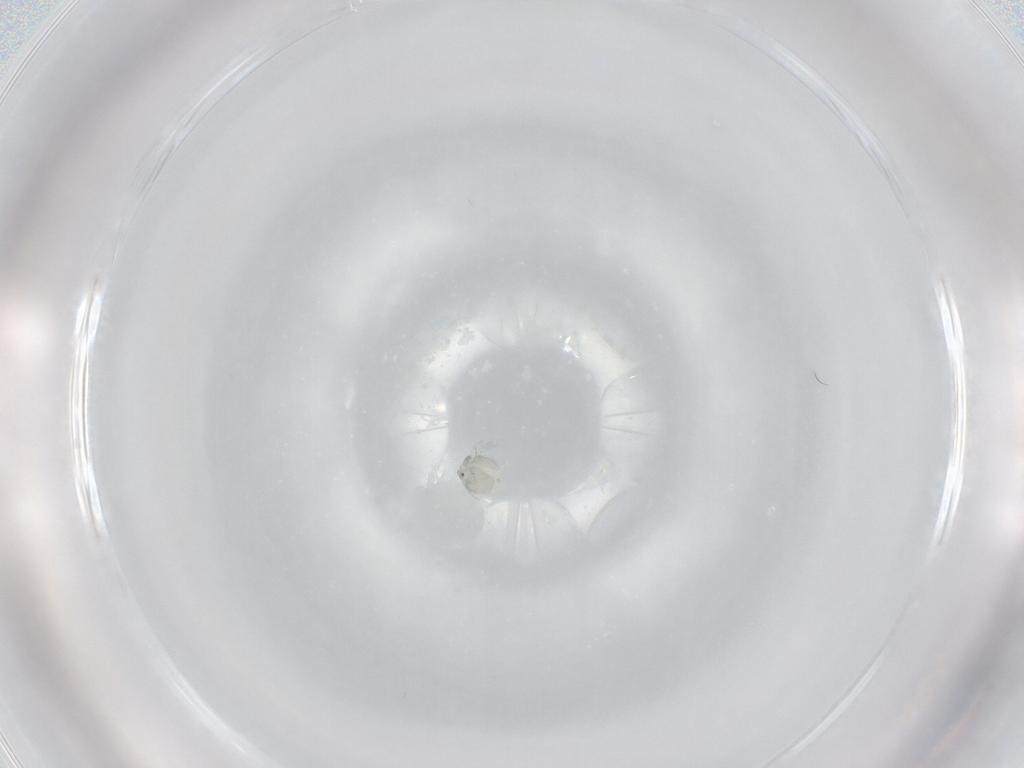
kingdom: Animalia
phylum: Arthropoda
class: Arachnida
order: Trombidiformes
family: Arrenuridae
